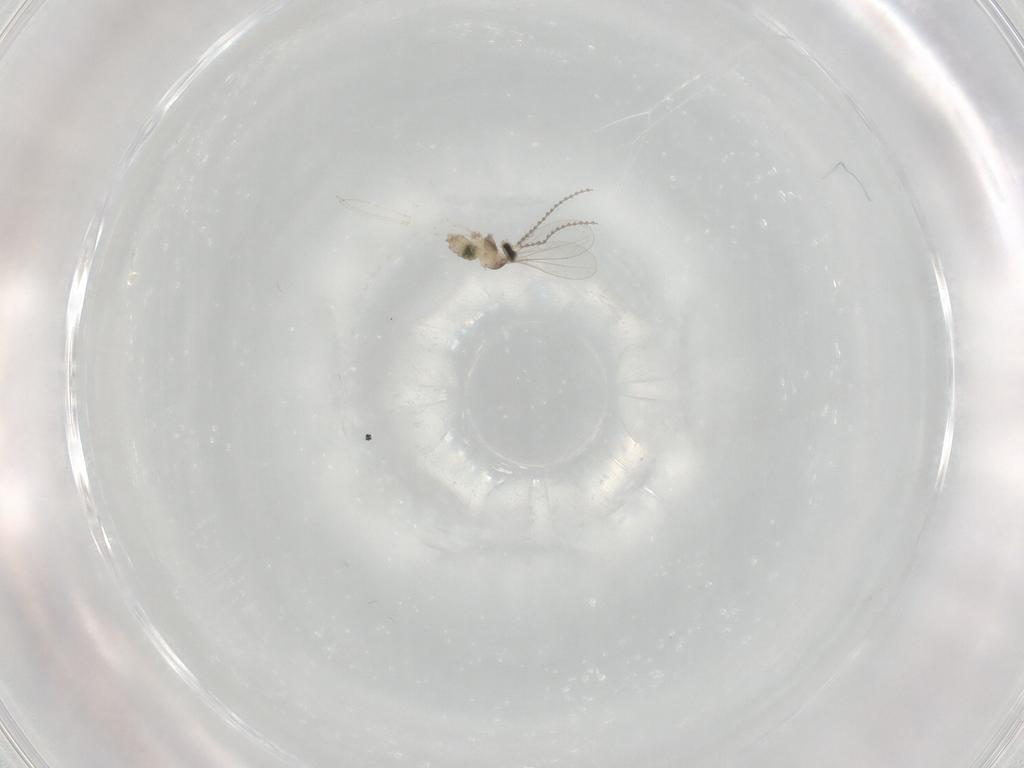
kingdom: Animalia
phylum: Arthropoda
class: Insecta
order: Diptera
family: Cecidomyiidae
